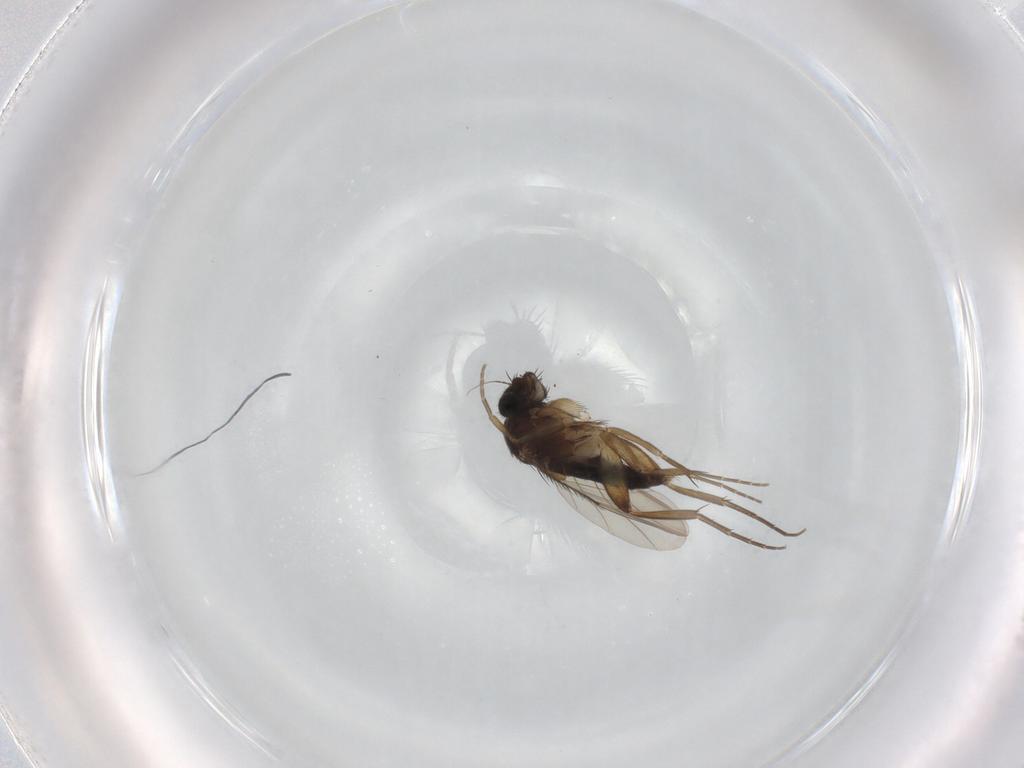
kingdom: Animalia
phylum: Arthropoda
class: Insecta
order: Diptera
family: Phoridae
